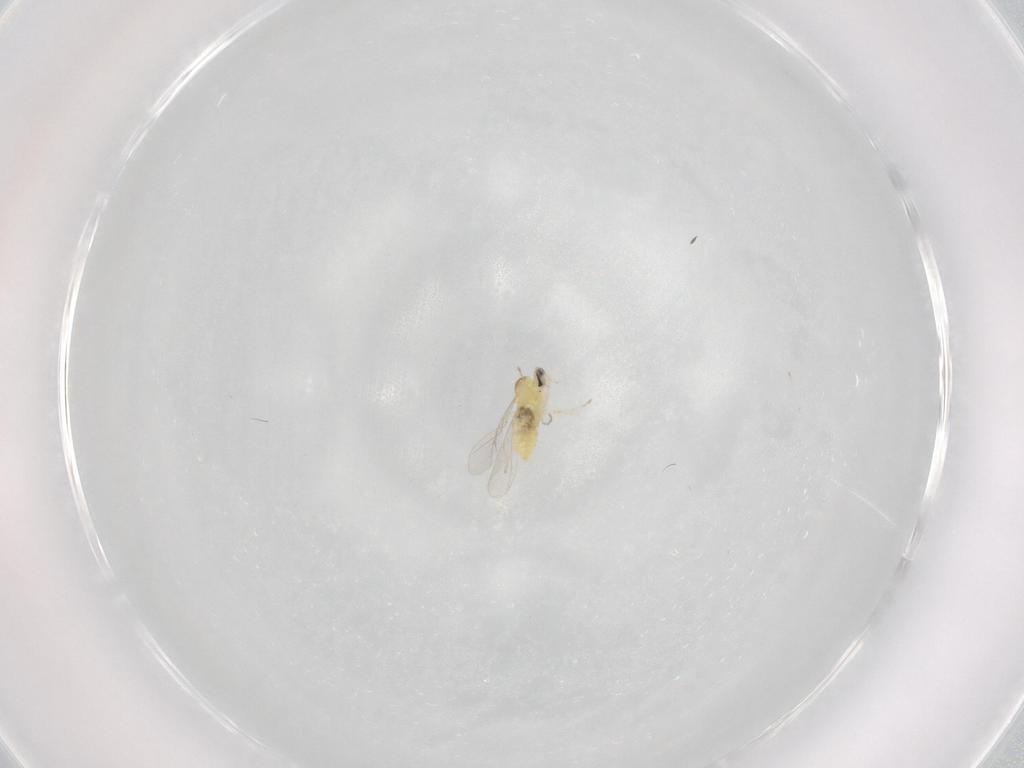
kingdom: Animalia
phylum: Arthropoda
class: Insecta
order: Diptera
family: Cecidomyiidae
